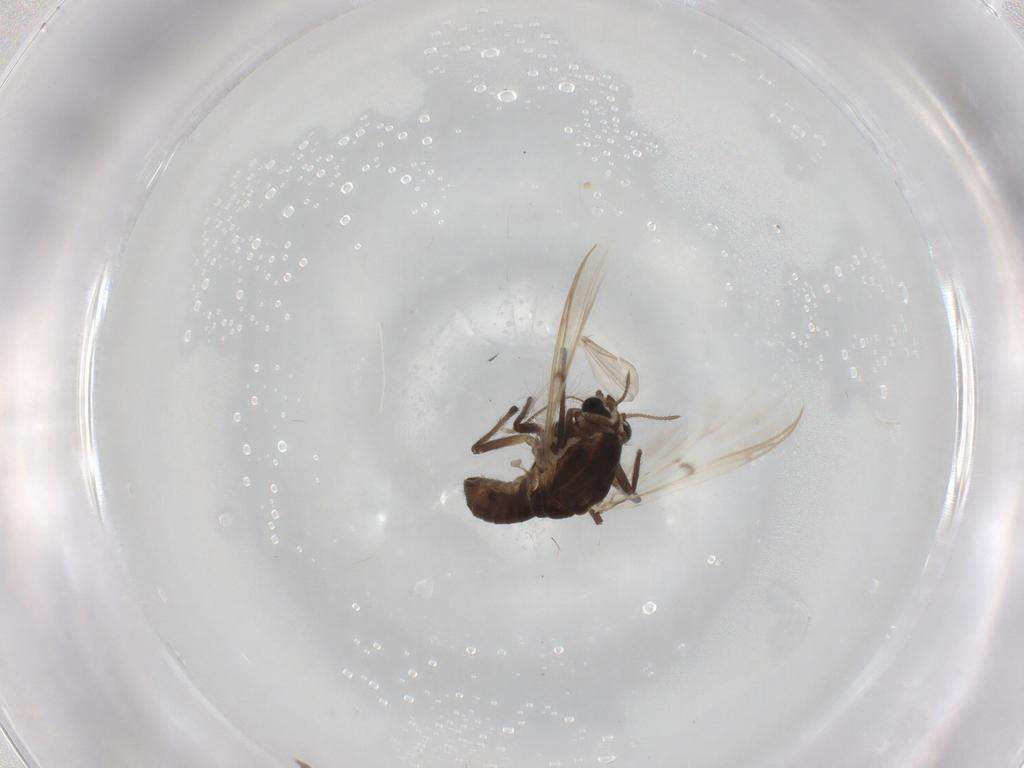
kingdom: Animalia
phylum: Arthropoda
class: Insecta
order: Diptera
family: Chironomidae
